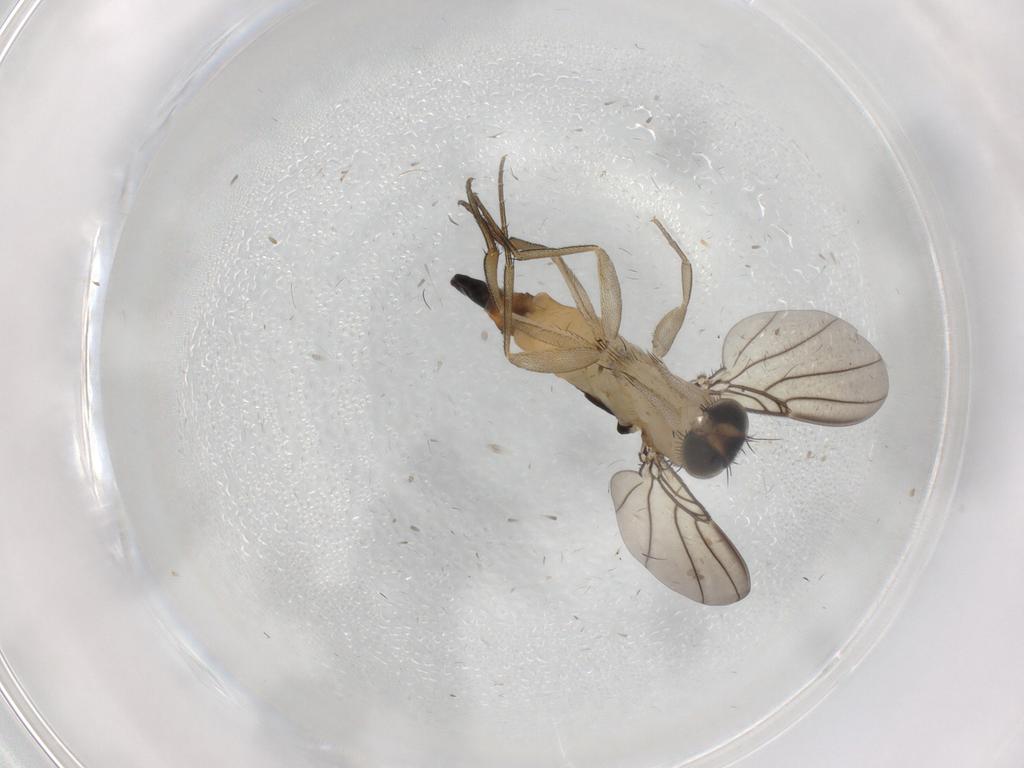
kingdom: Animalia
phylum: Arthropoda
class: Insecta
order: Diptera
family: Phoridae
